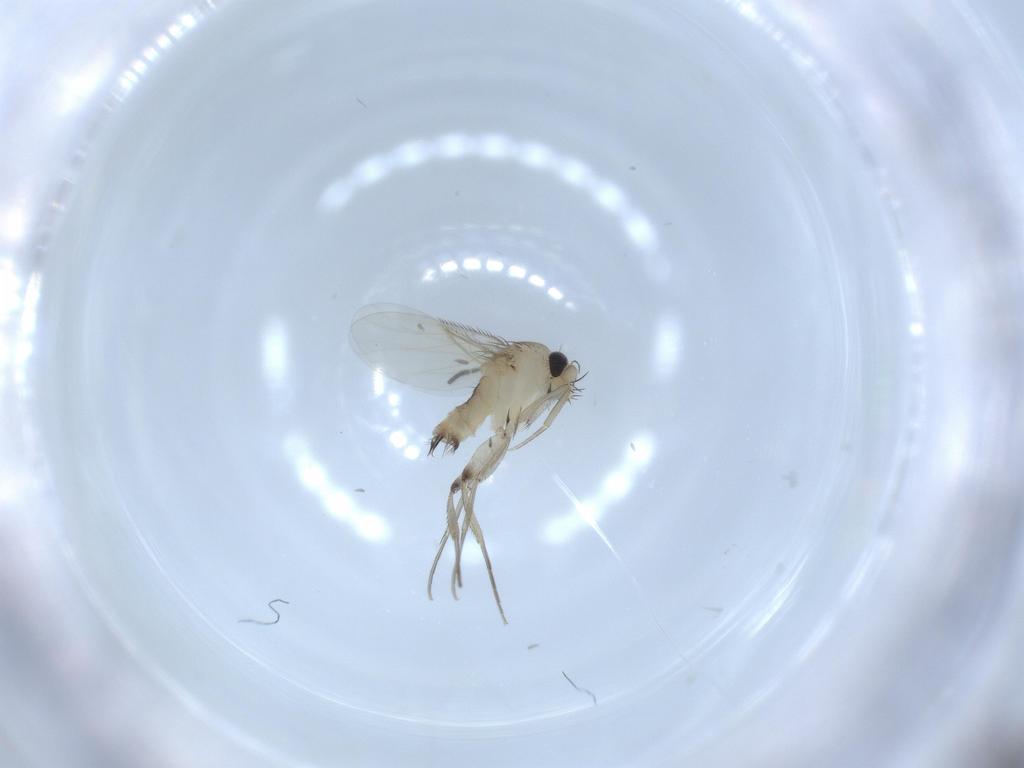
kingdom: Animalia
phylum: Arthropoda
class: Insecta
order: Diptera
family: Phoridae
